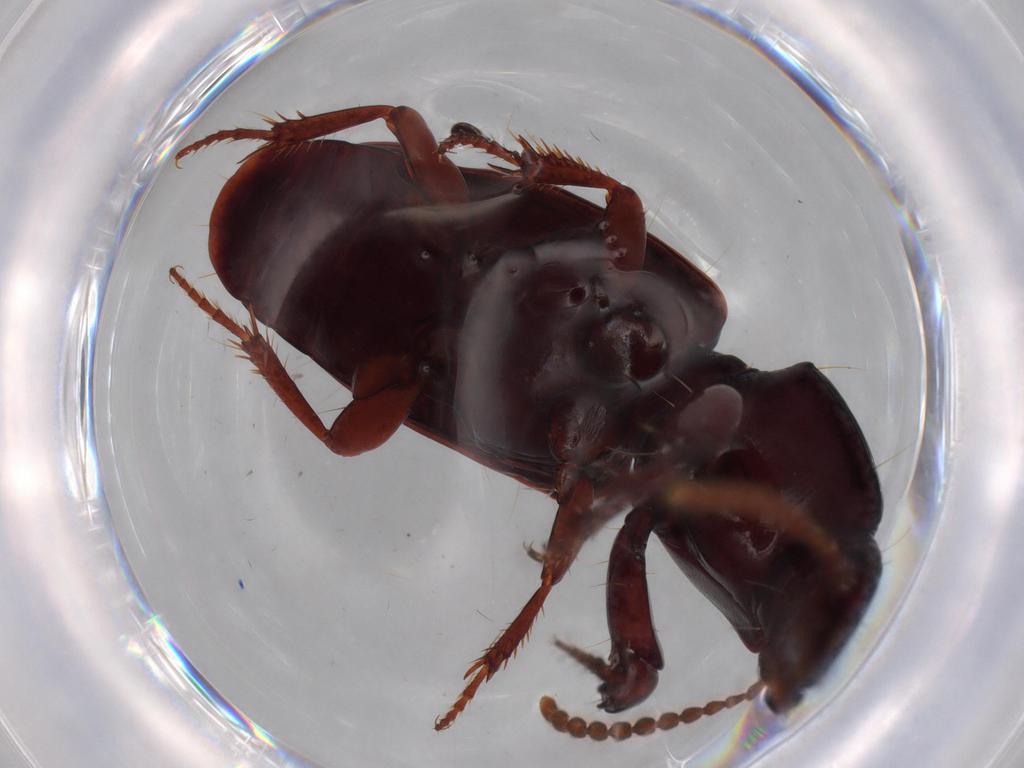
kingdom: Animalia
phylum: Arthropoda
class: Insecta
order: Coleoptera
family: Carabidae
